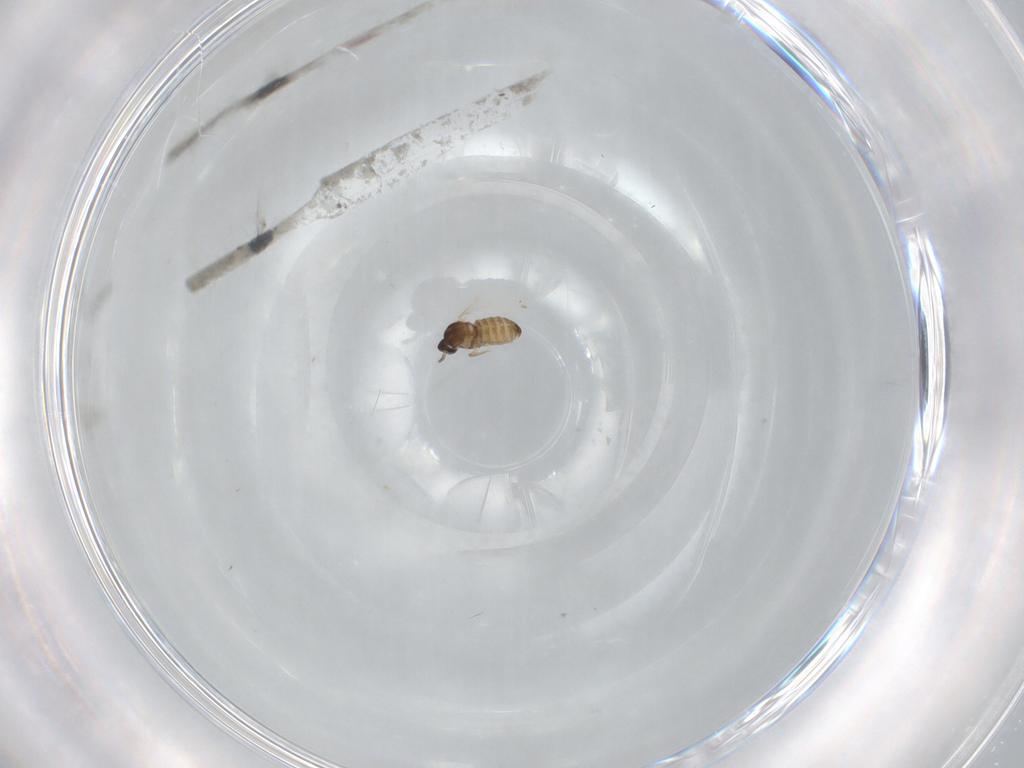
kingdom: Animalia
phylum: Arthropoda
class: Insecta
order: Diptera
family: Cecidomyiidae
